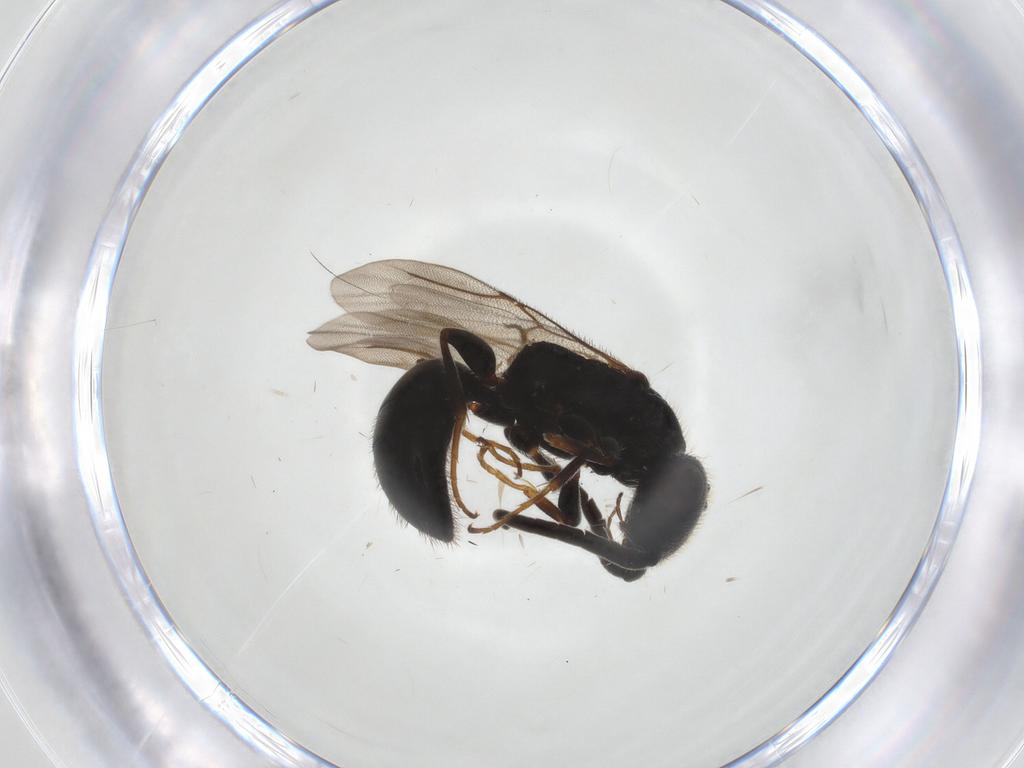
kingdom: Animalia
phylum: Arthropoda
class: Insecta
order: Hymenoptera
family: Bethylidae
